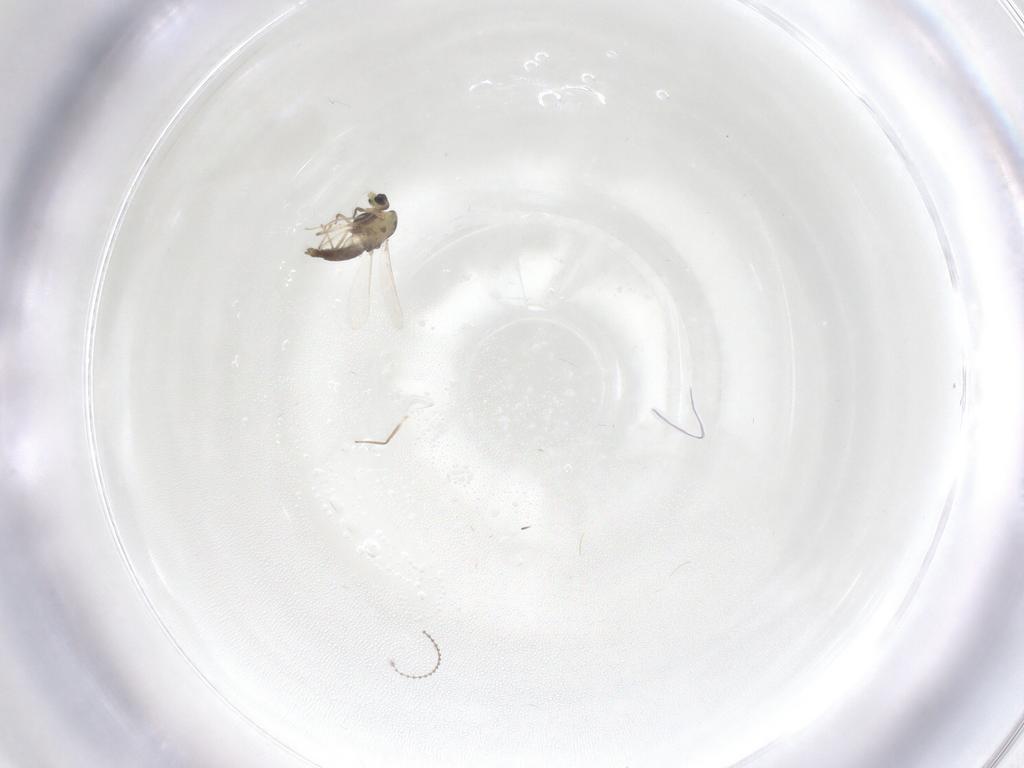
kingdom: Animalia
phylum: Arthropoda
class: Insecta
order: Diptera
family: Chironomidae
